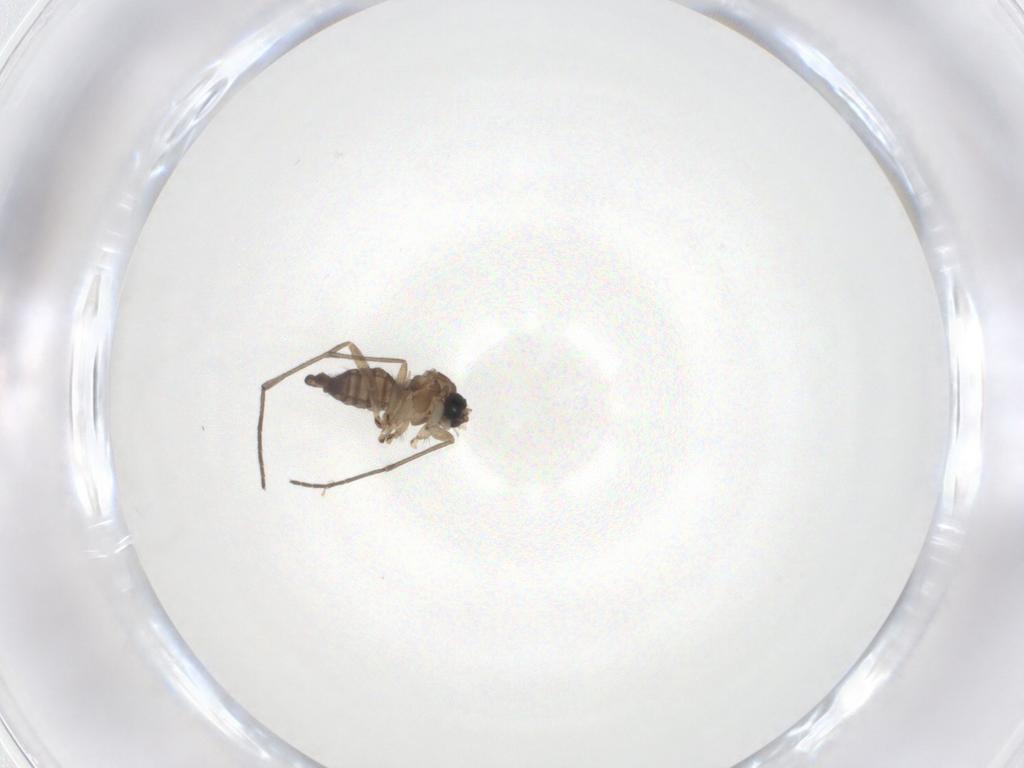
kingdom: Animalia
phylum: Arthropoda
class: Insecta
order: Diptera
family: Sciaridae
